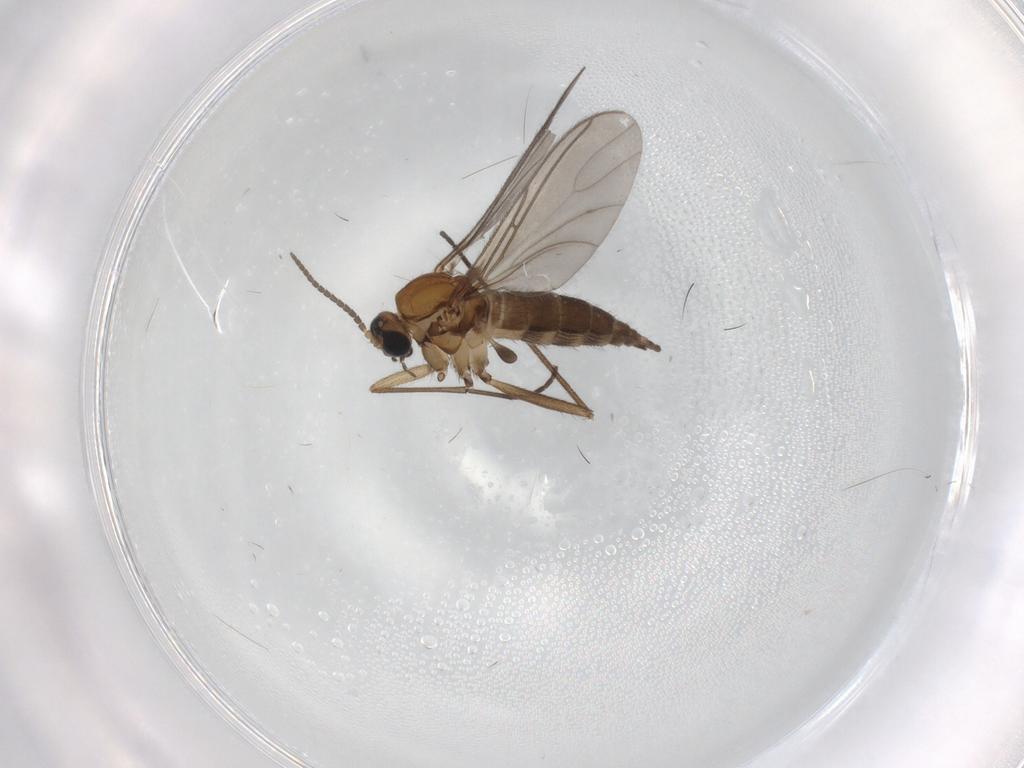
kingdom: Animalia
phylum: Arthropoda
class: Insecta
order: Diptera
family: Sciaridae
